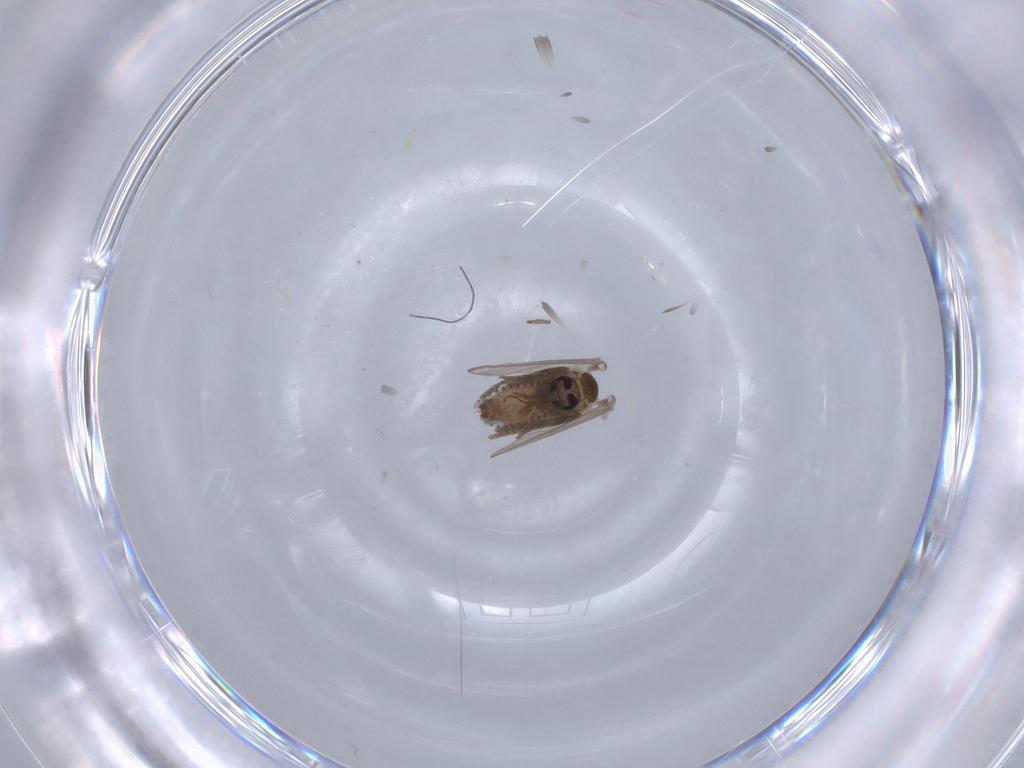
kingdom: Animalia
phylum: Arthropoda
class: Insecta
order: Diptera
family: Psychodidae
